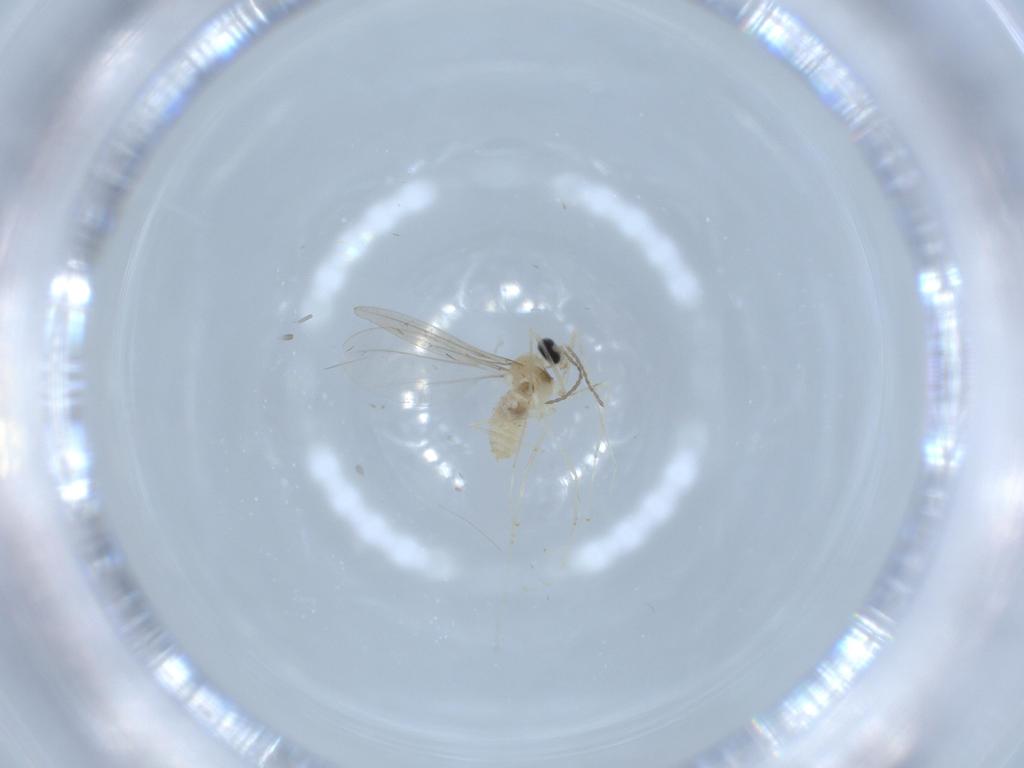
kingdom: Animalia
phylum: Arthropoda
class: Insecta
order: Diptera
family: Cecidomyiidae
